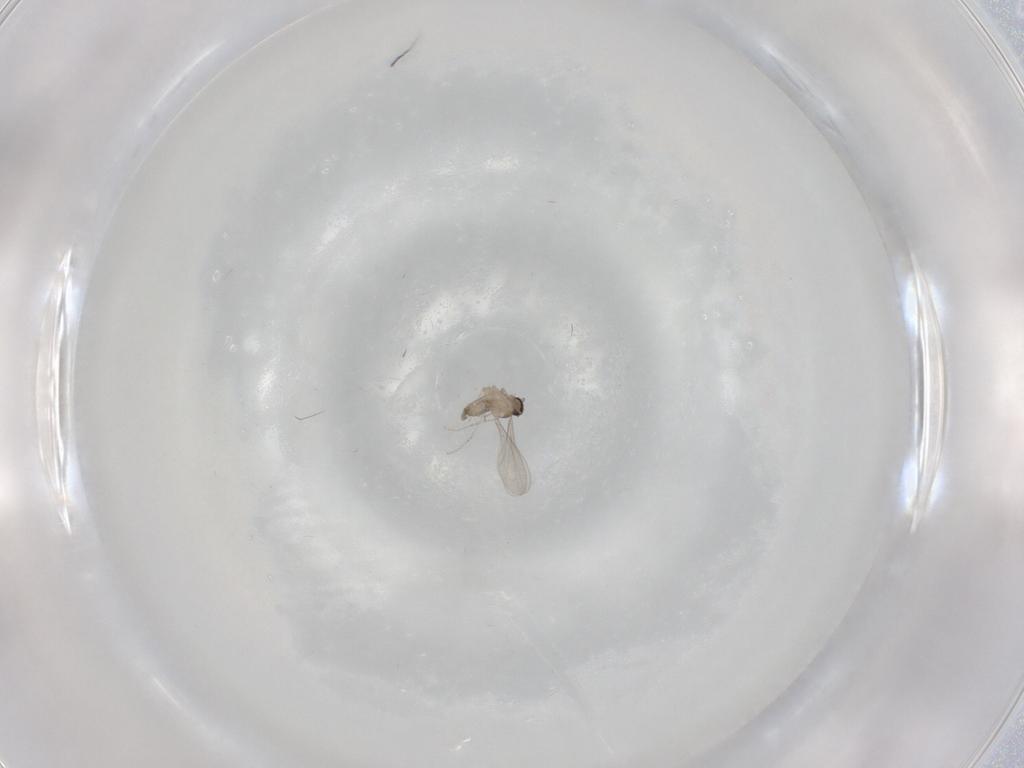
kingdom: Animalia
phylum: Arthropoda
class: Insecta
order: Diptera
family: Cecidomyiidae
